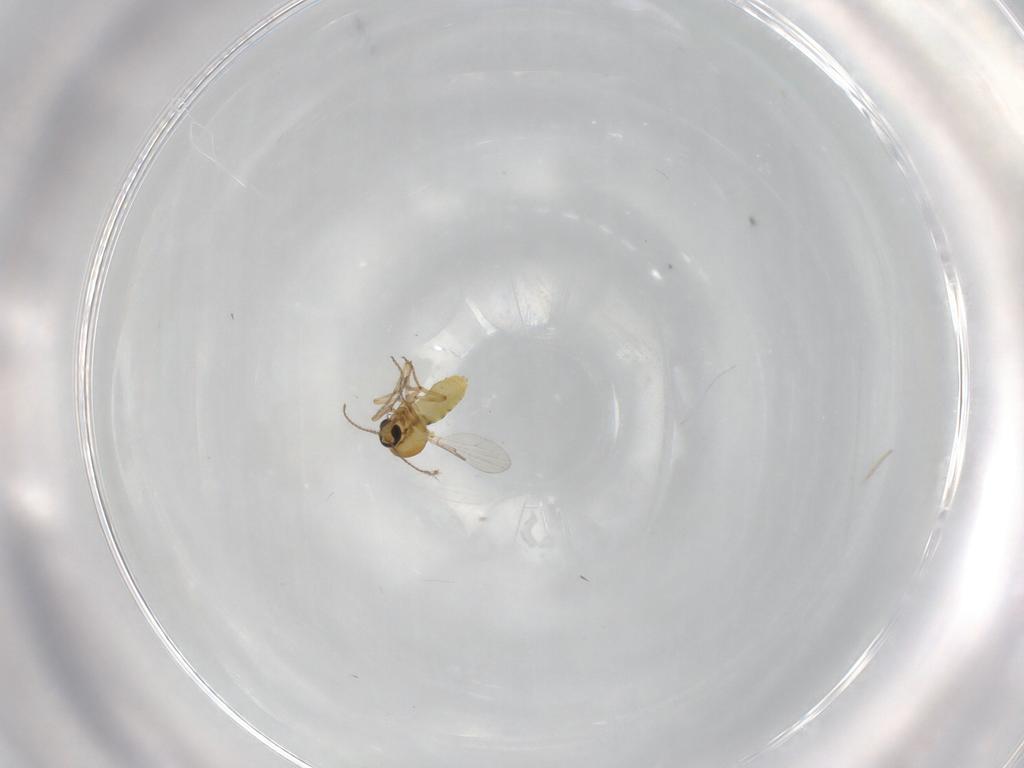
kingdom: Animalia
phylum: Arthropoda
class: Insecta
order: Diptera
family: Ceratopogonidae
